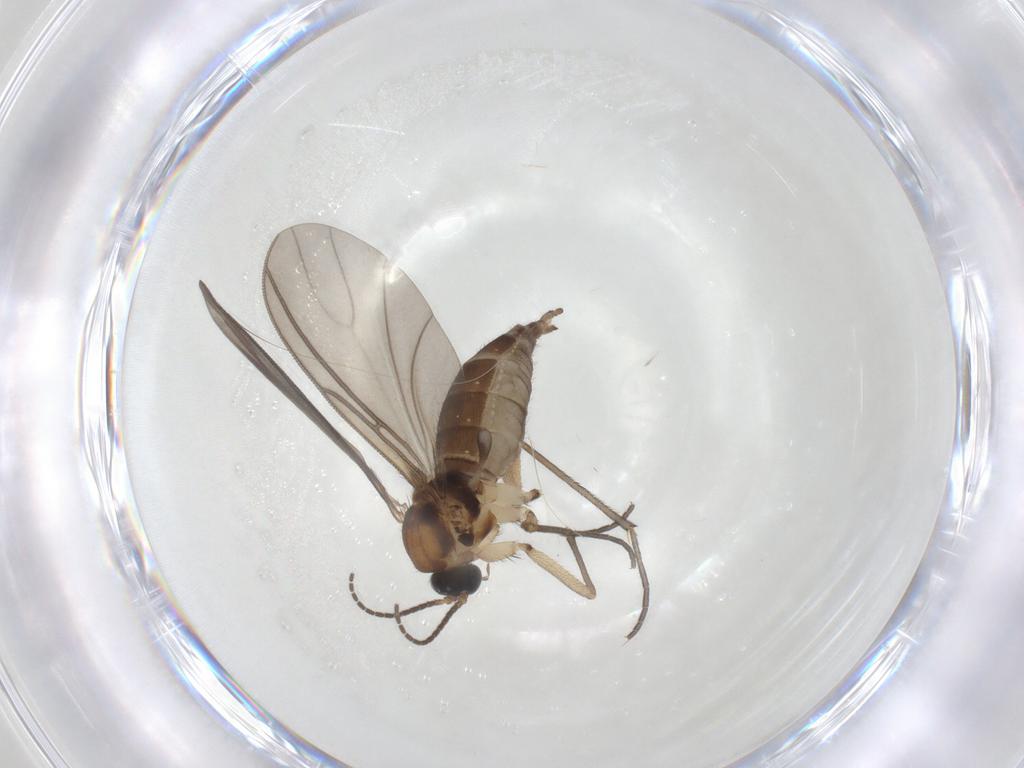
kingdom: Animalia
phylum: Arthropoda
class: Insecta
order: Diptera
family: Sciaridae
